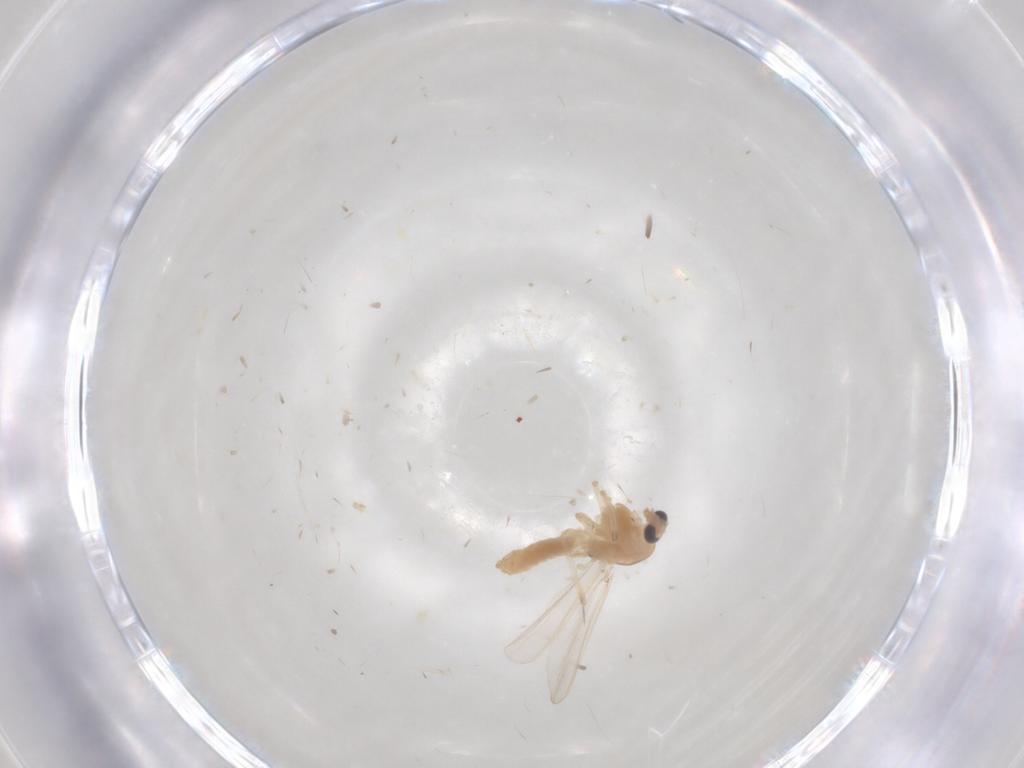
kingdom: Animalia
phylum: Arthropoda
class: Insecta
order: Diptera
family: Chaoboridae
